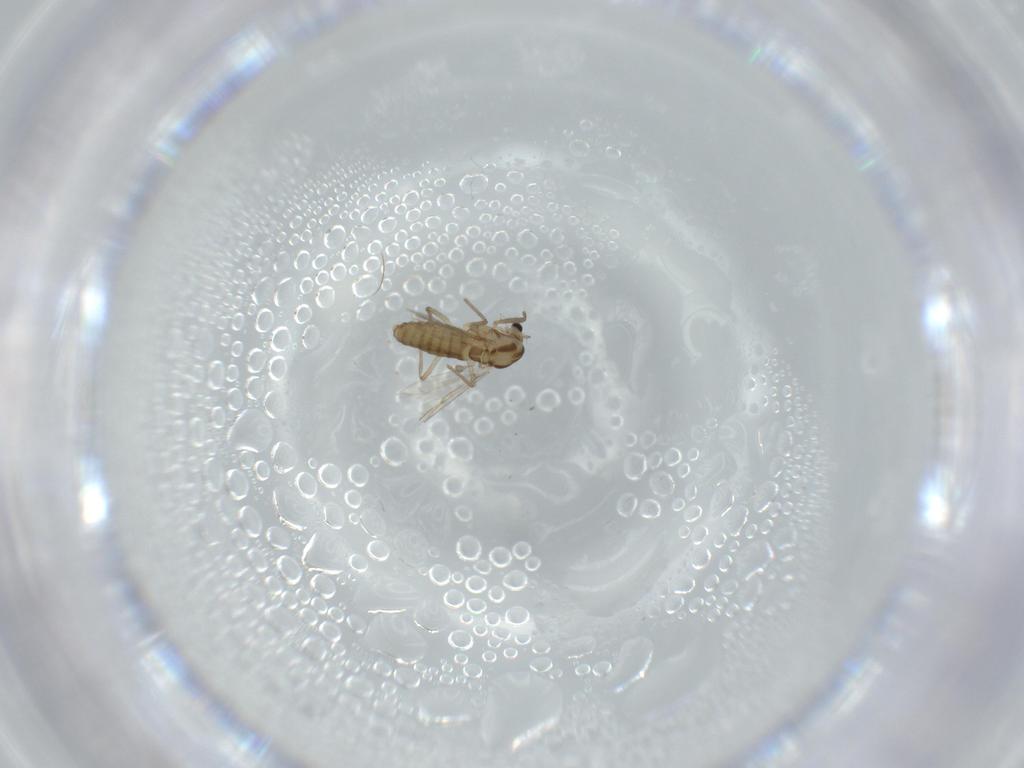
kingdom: Animalia
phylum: Arthropoda
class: Insecta
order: Diptera
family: Chironomidae
